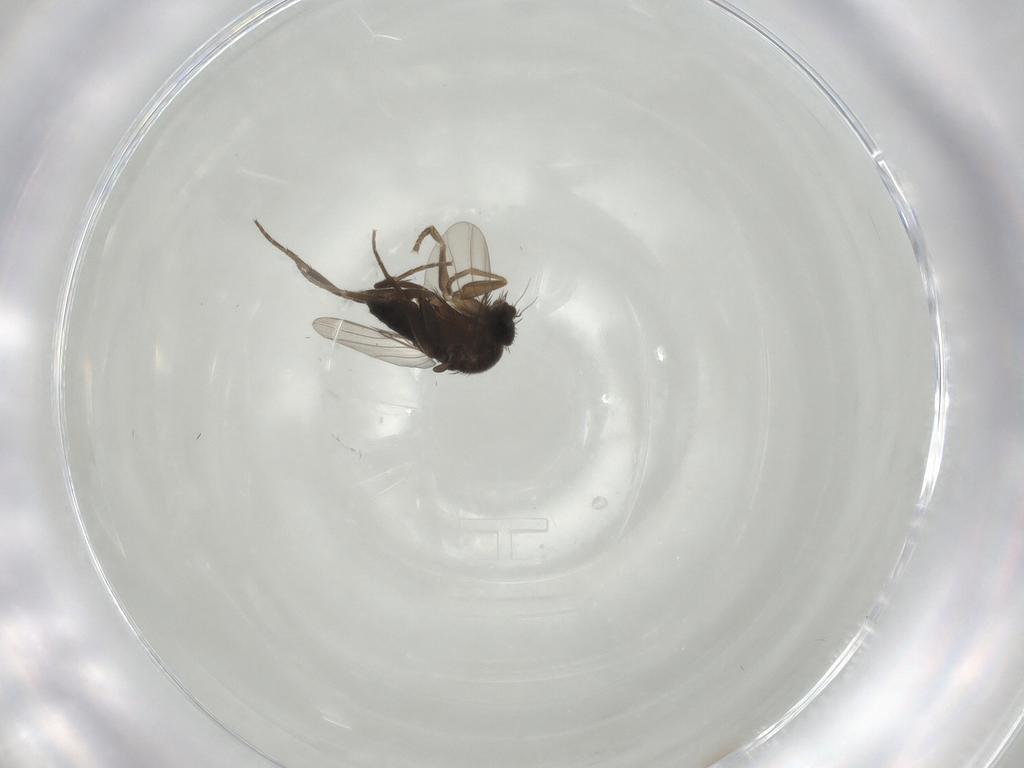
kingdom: Animalia
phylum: Arthropoda
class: Insecta
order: Diptera
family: Phoridae
